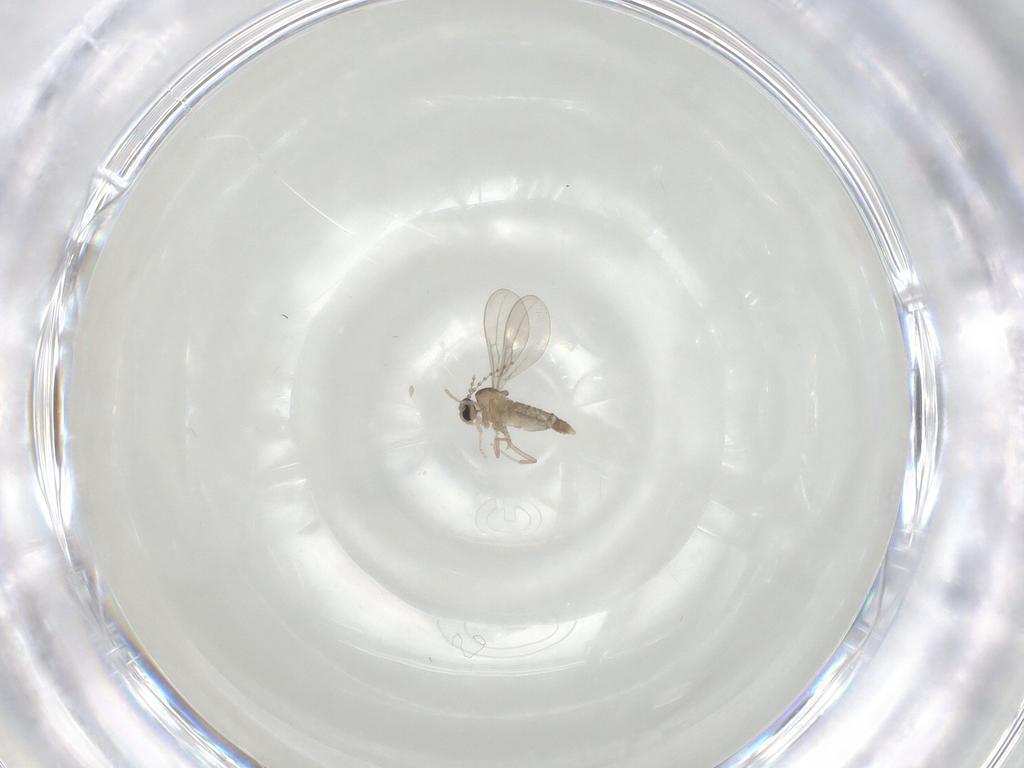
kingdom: Animalia
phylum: Arthropoda
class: Insecta
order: Diptera
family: Cecidomyiidae
